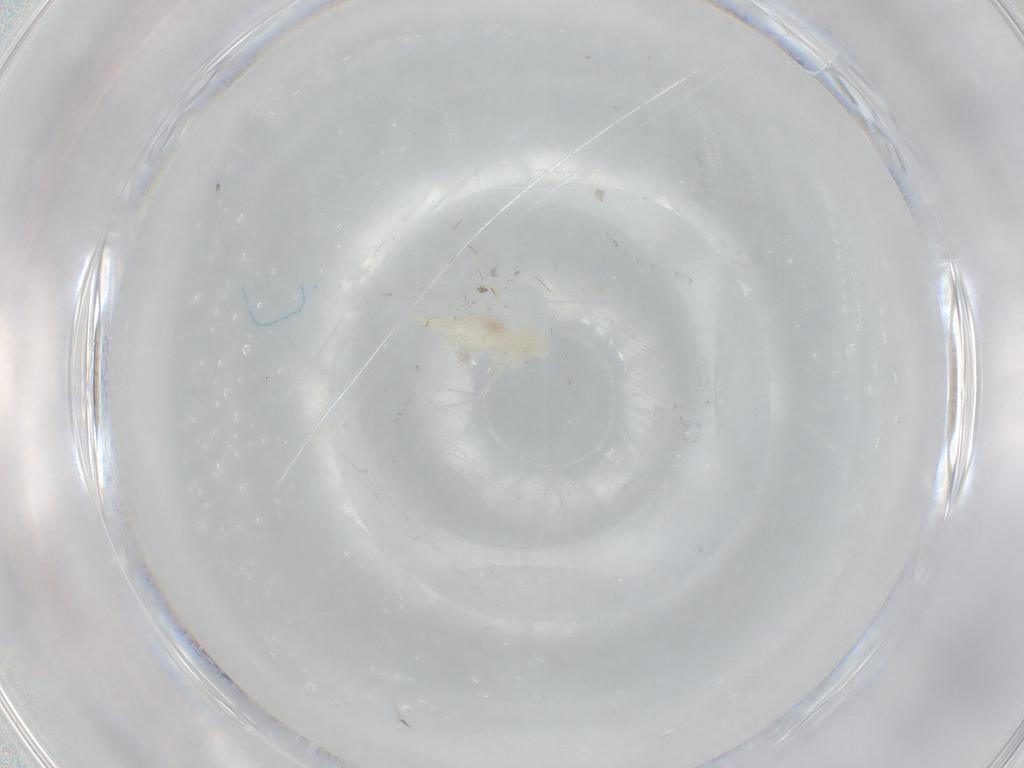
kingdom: Animalia
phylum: Arthropoda
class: Insecta
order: Diptera
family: Cecidomyiidae
